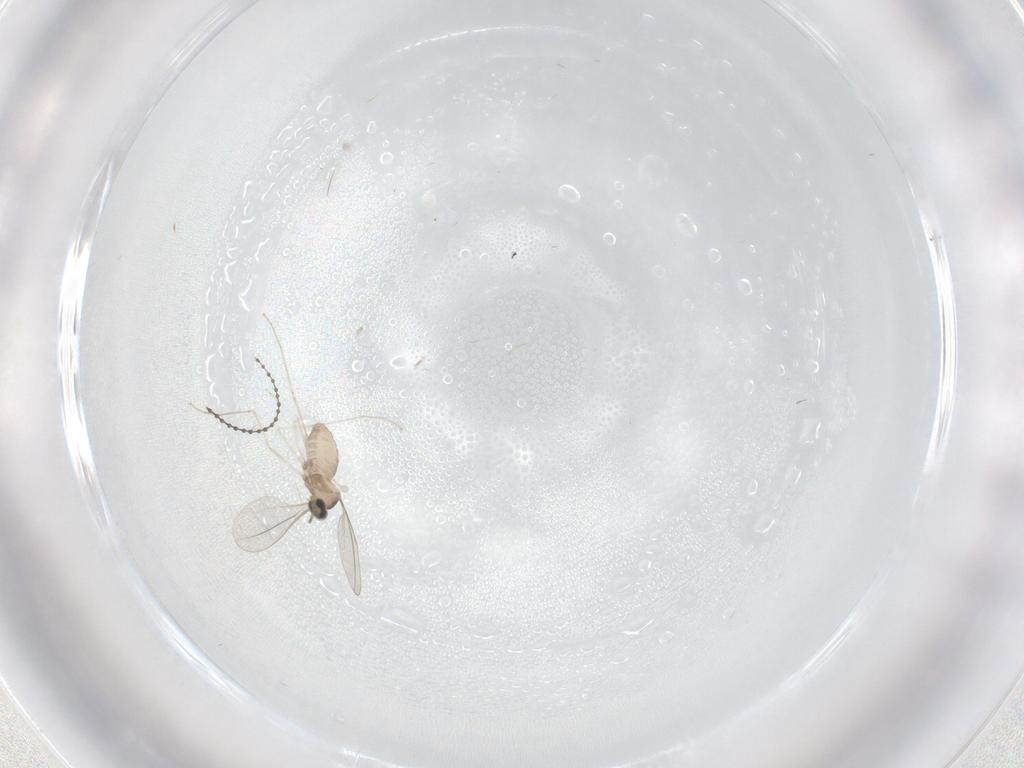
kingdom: Animalia
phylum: Arthropoda
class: Insecta
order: Diptera
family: Cecidomyiidae
